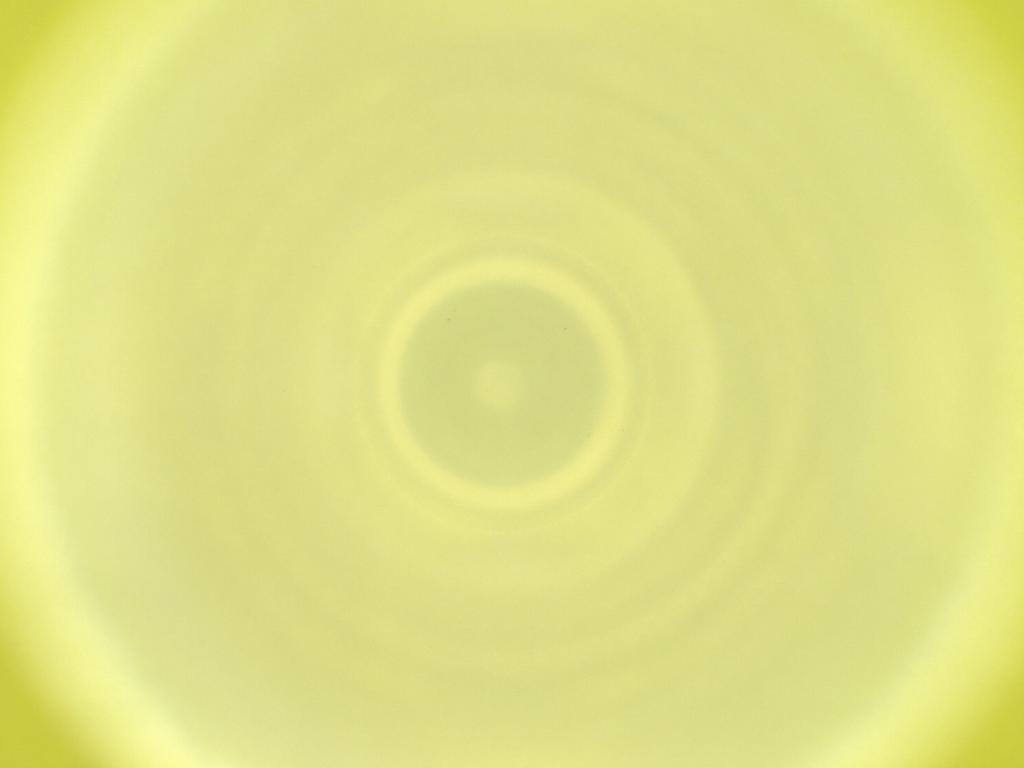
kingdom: Animalia
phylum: Arthropoda
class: Insecta
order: Diptera
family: Cecidomyiidae
